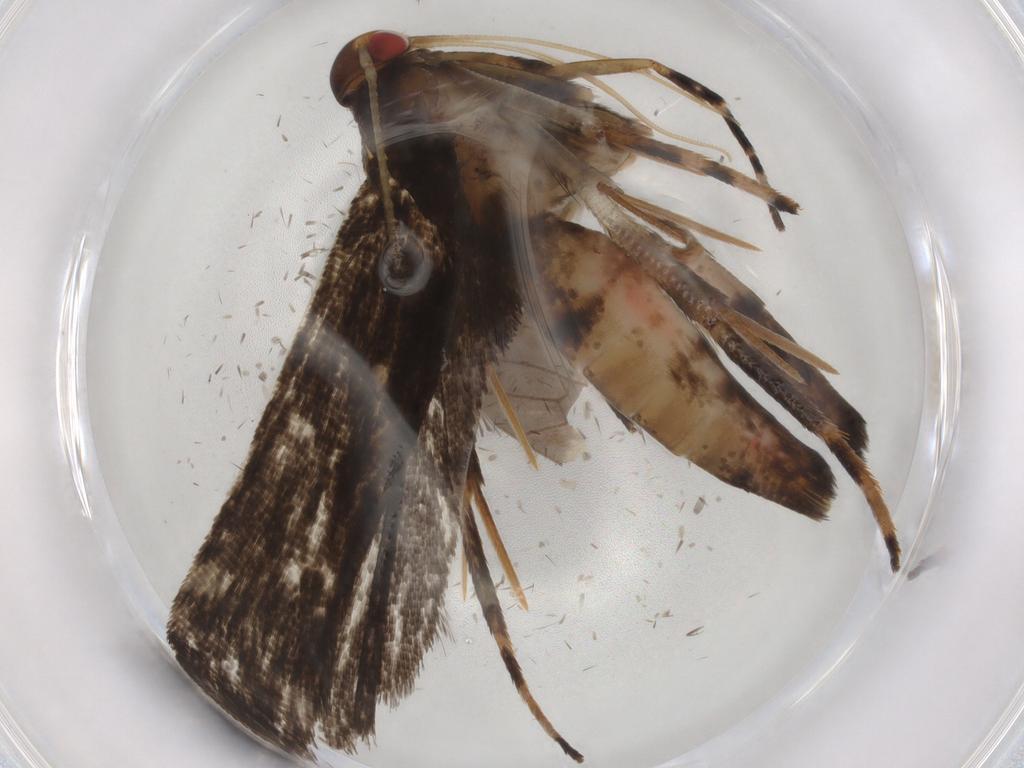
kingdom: Animalia
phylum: Arthropoda
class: Insecta
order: Lepidoptera
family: Gelechiidae
